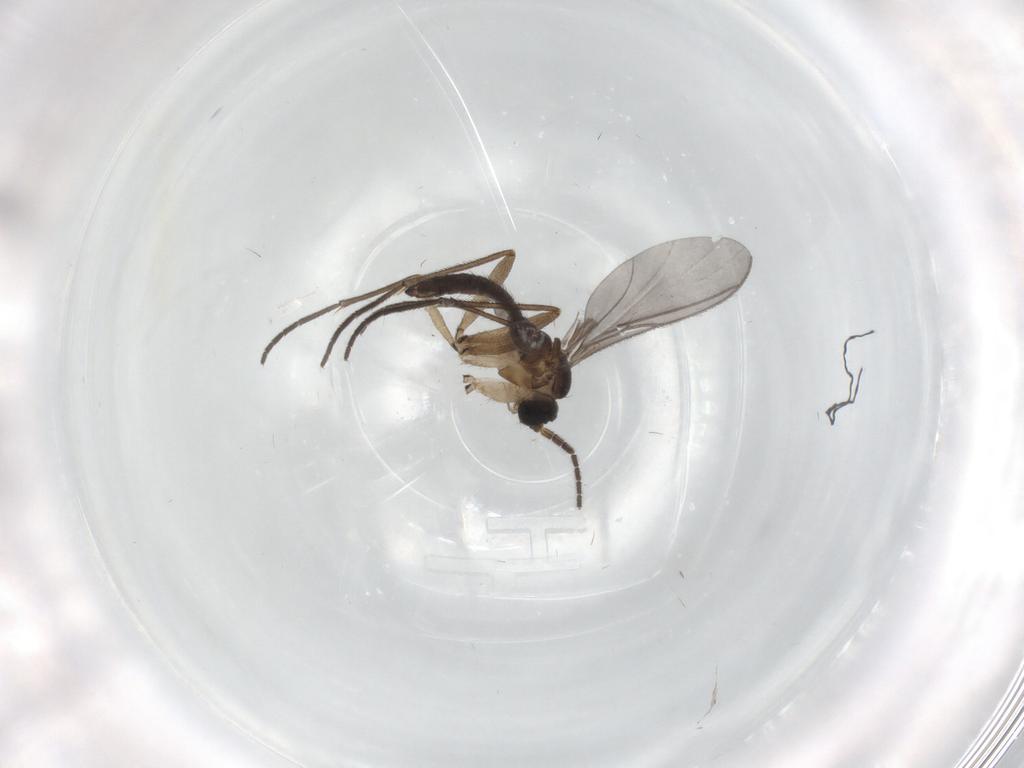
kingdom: Animalia
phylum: Arthropoda
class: Insecta
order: Diptera
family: Sciaridae
